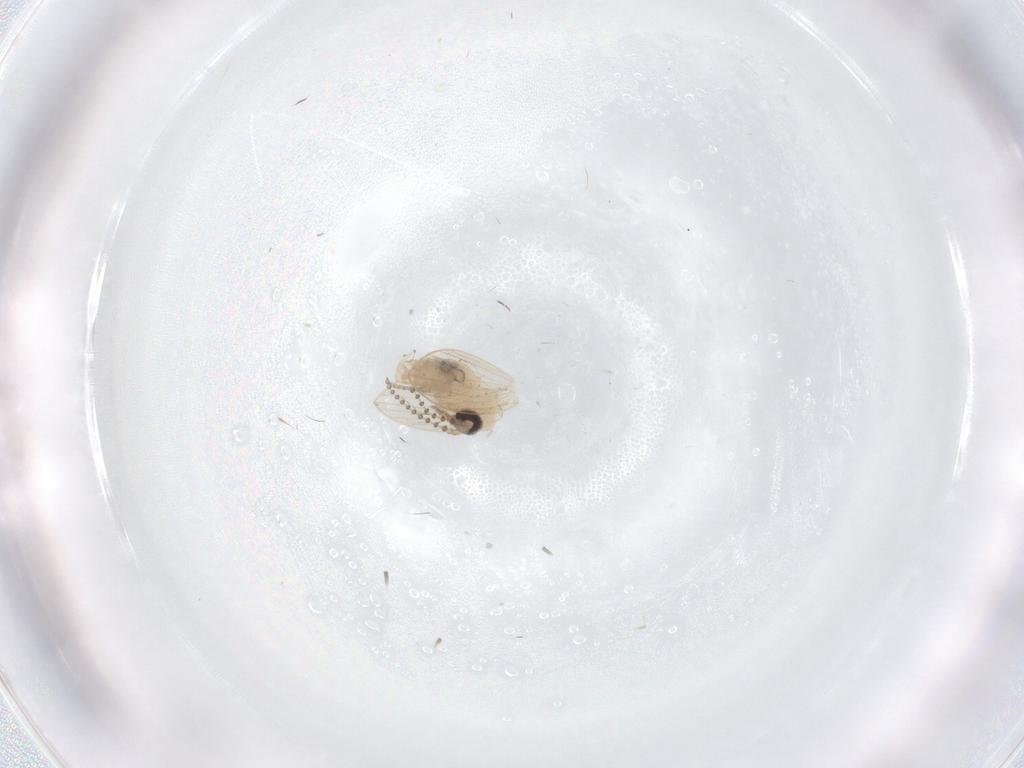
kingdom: Animalia
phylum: Arthropoda
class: Insecta
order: Diptera
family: Psychodidae
